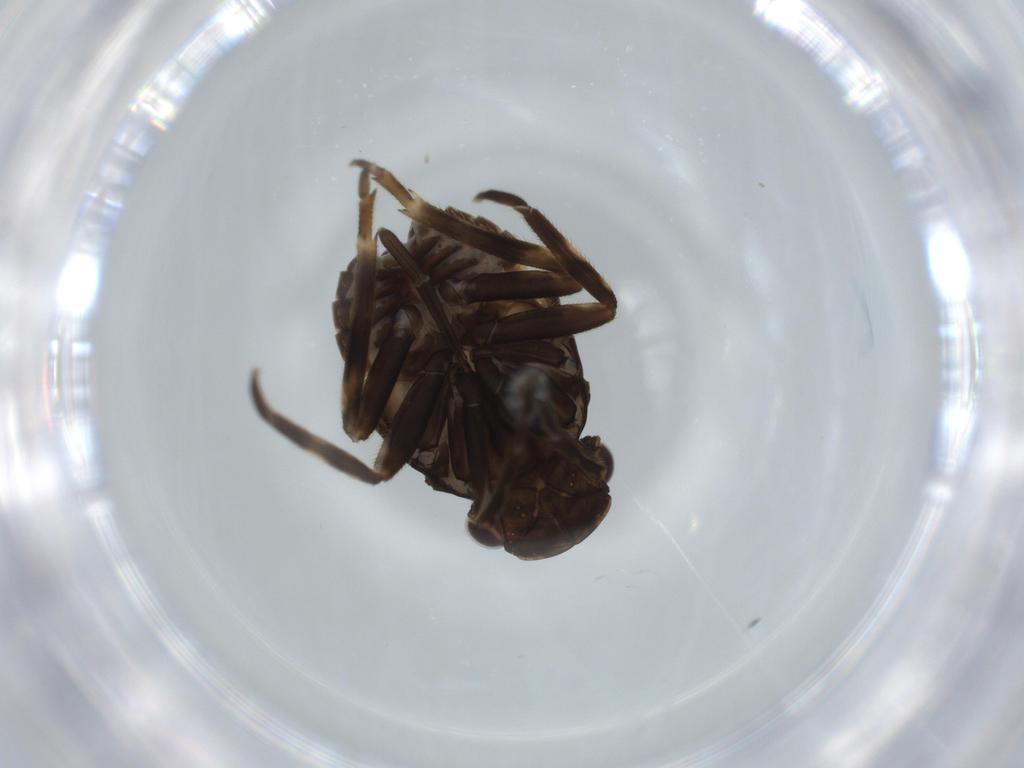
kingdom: Animalia
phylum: Arthropoda
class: Insecta
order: Hemiptera
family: Fulgoridae
